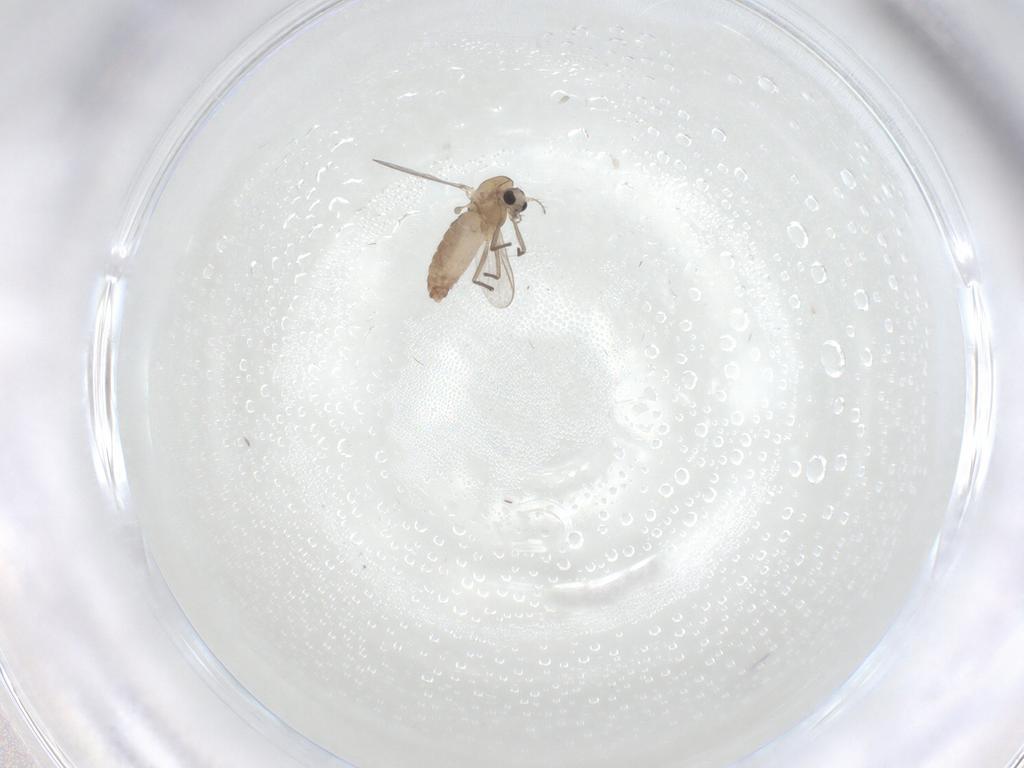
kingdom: Animalia
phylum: Arthropoda
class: Insecta
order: Diptera
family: Chironomidae
